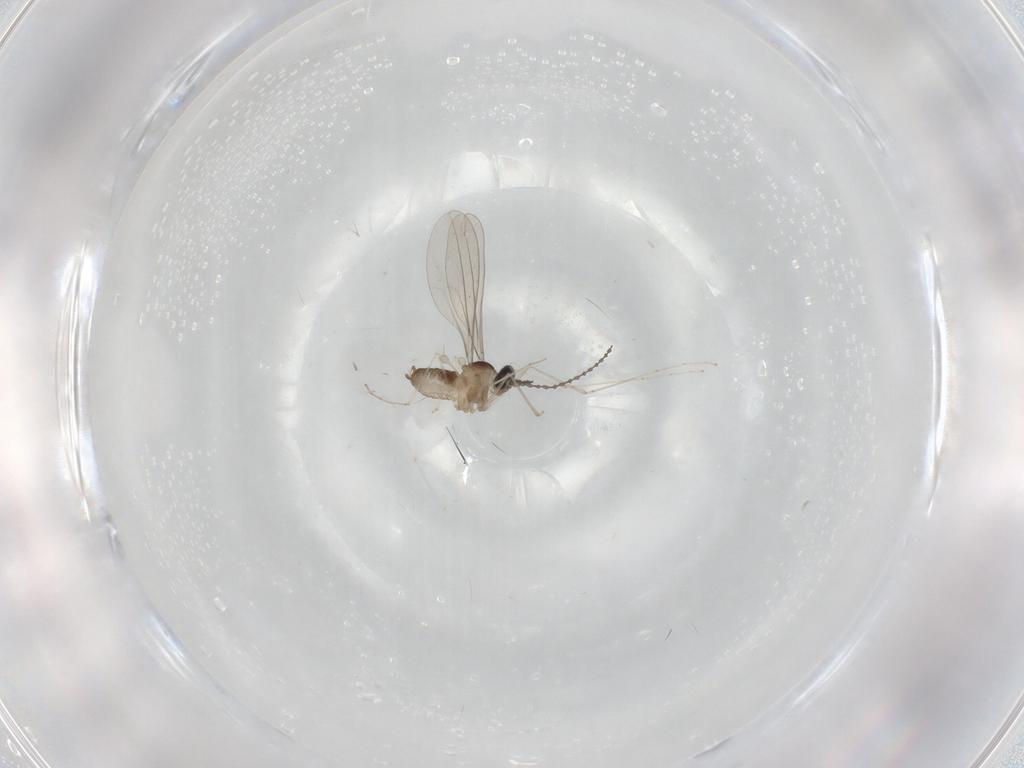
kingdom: Animalia
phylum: Arthropoda
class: Insecta
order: Diptera
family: Cecidomyiidae
